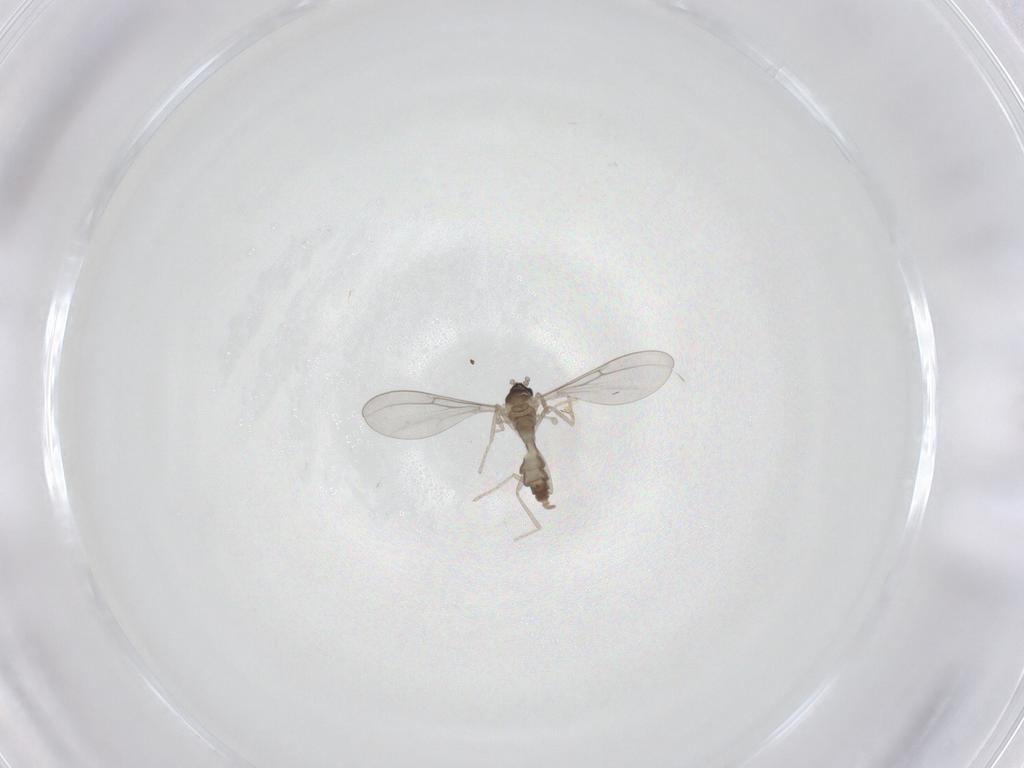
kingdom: Animalia
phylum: Arthropoda
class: Insecta
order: Diptera
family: Cecidomyiidae
